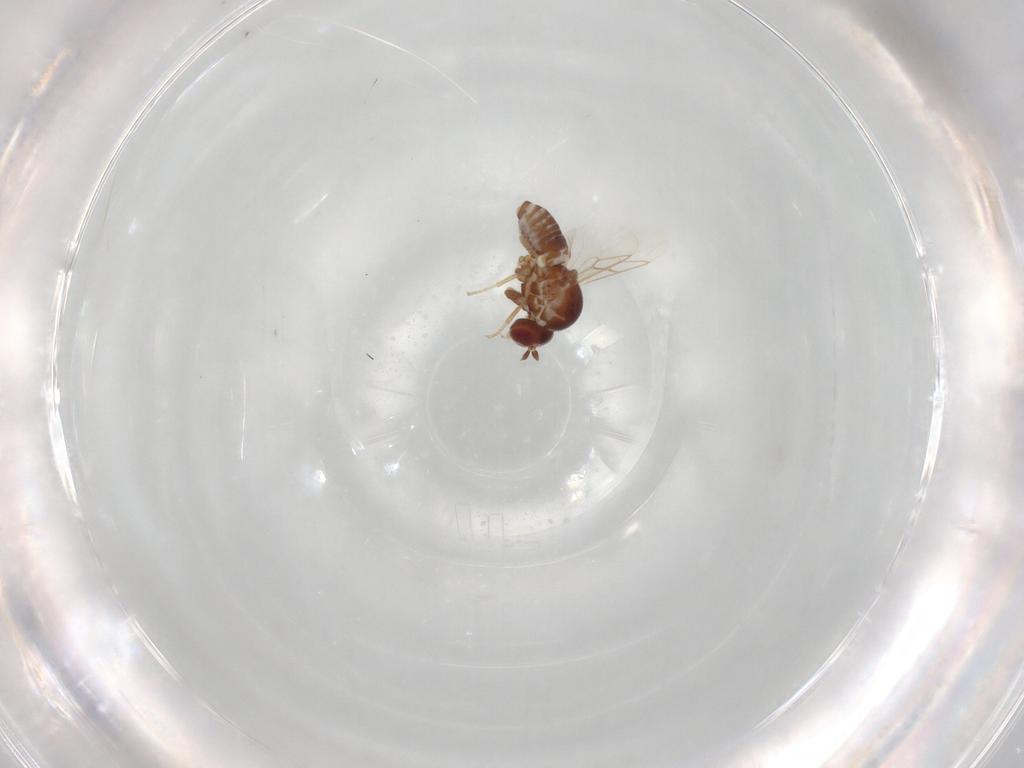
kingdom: Animalia
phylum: Arthropoda
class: Insecta
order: Diptera
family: Cecidomyiidae
